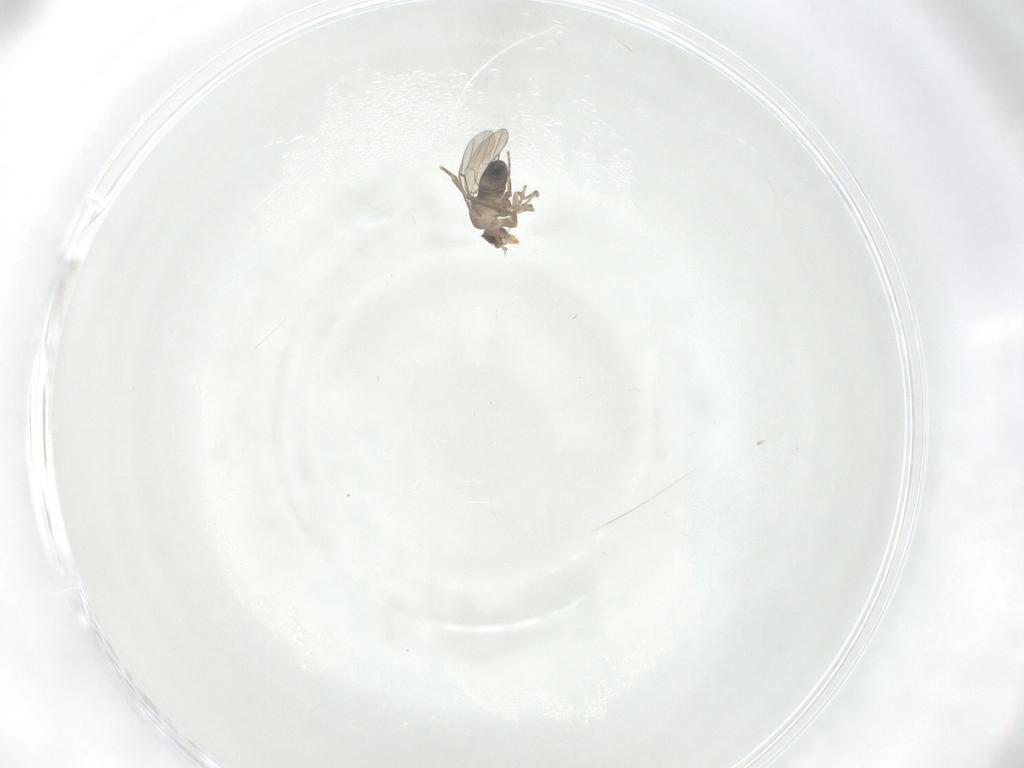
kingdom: Animalia
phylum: Arthropoda
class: Insecta
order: Diptera
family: Phoridae
